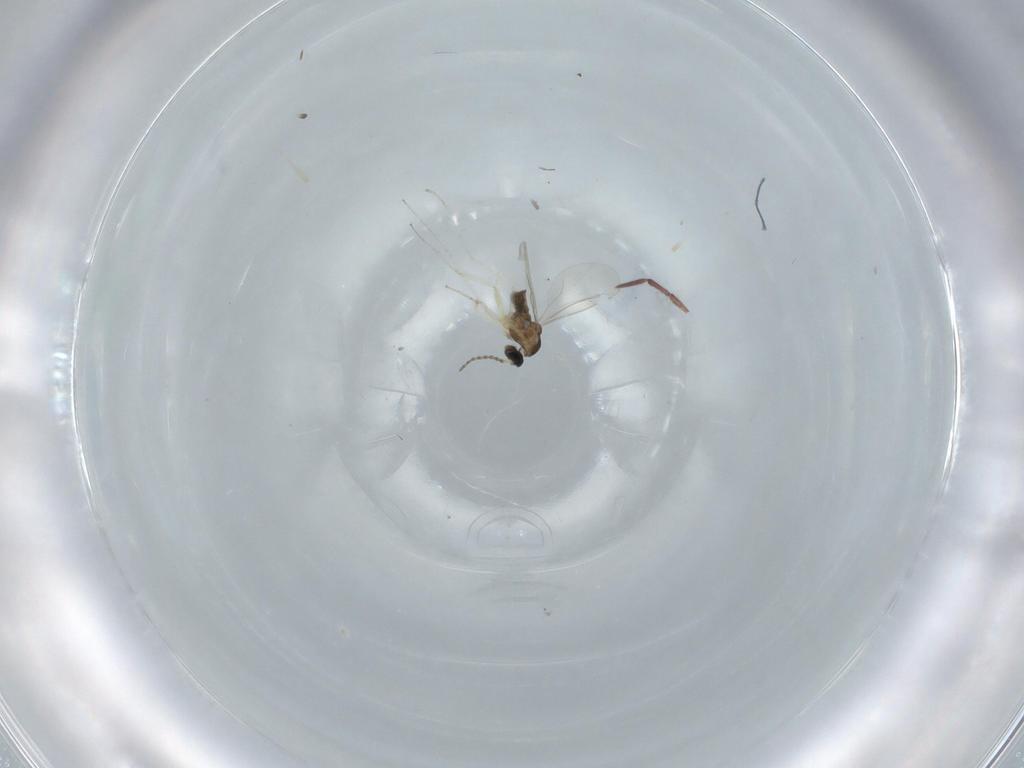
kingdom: Animalia
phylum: Arthropoda
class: Insecta
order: Diptera
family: Cecidomyiidae
